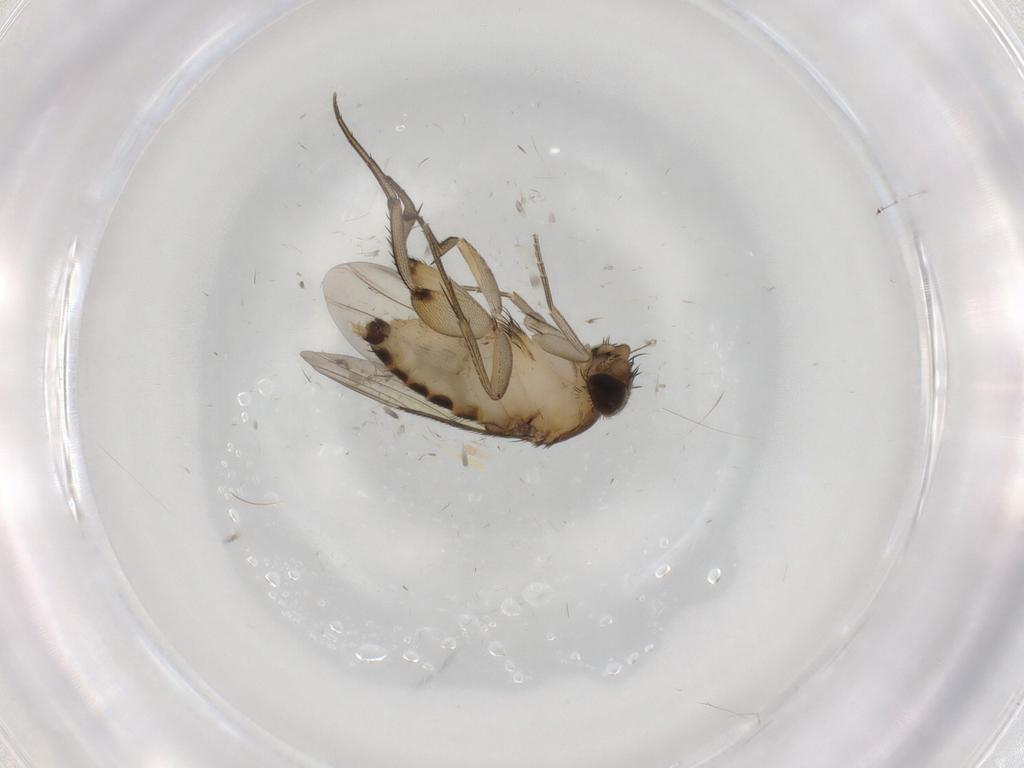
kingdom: Animalia
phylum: Arthropoda
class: Insecta
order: Diptera
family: Phoridae
